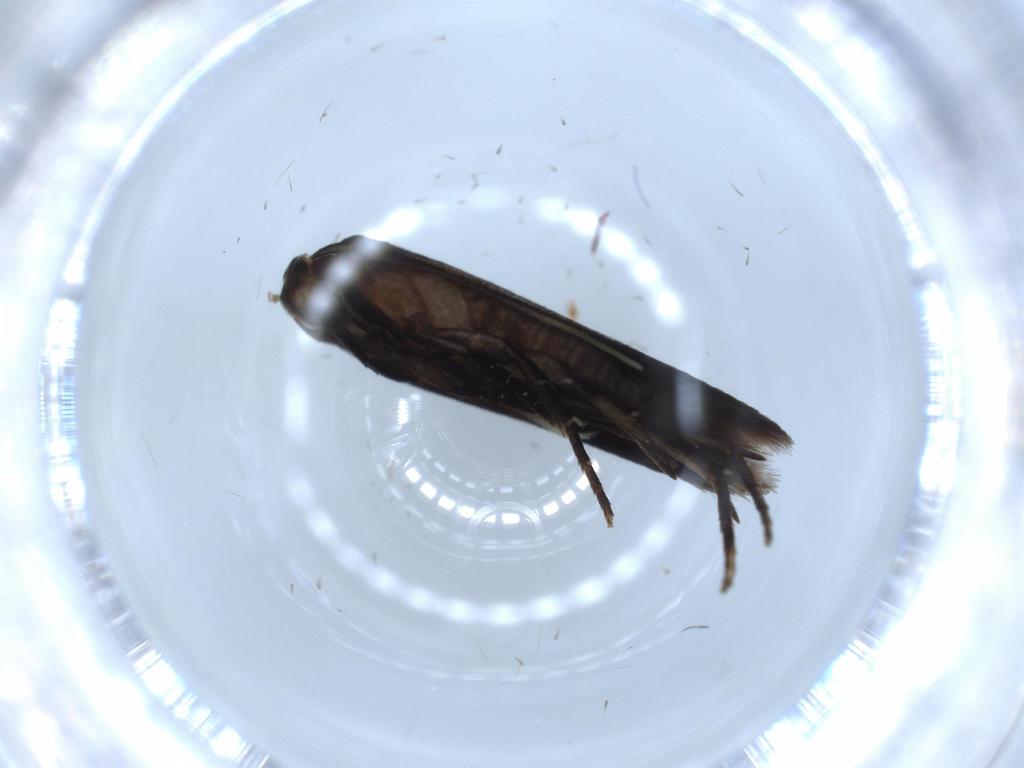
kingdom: Animalia
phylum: Arthropoda
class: Insecta
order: Lepidoptera
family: Gelechiidae
